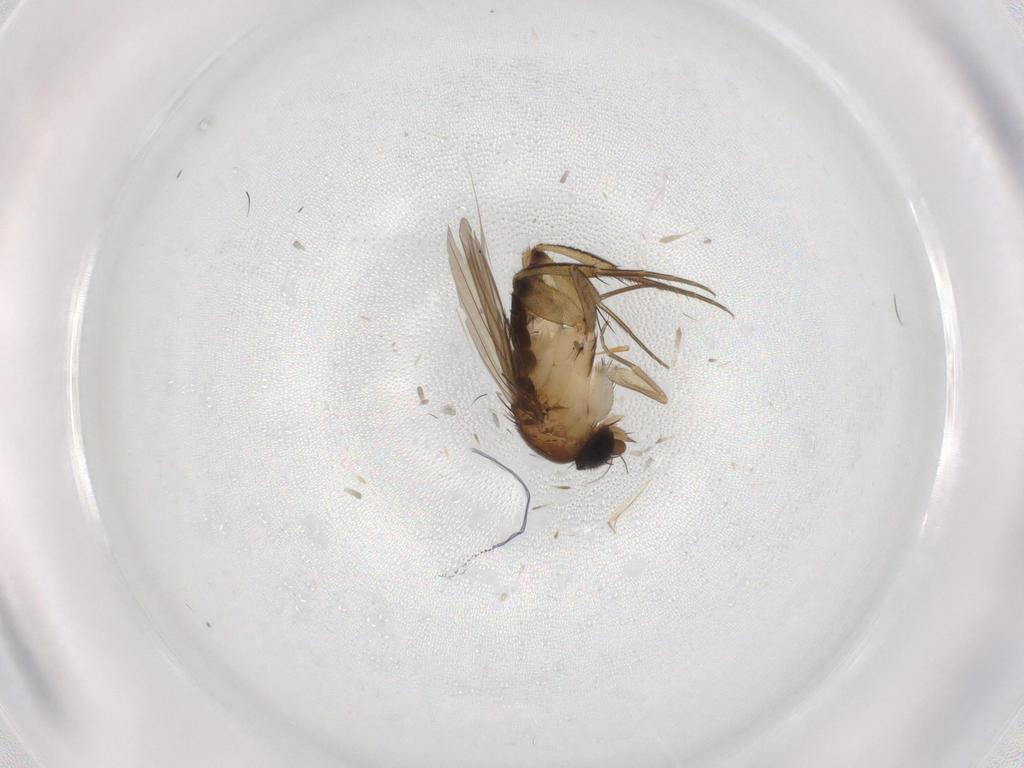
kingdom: Animalia
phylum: Arthropoda
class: Insecta
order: Diptera
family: Phoridae
